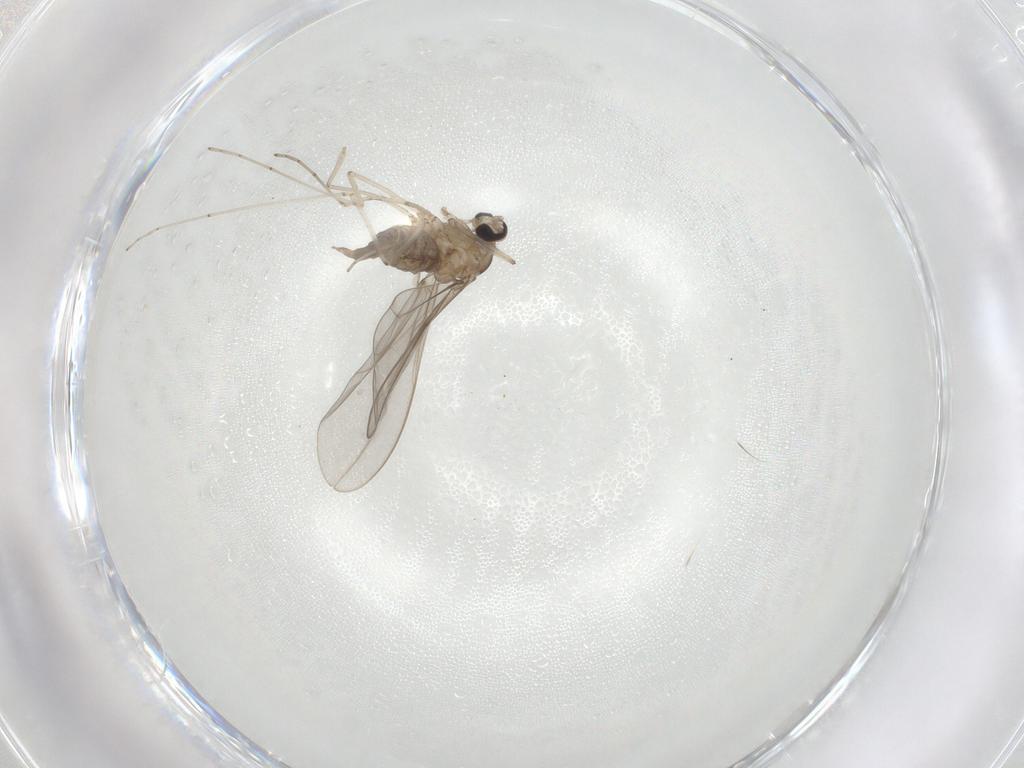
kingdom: Animalia
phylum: Arthropoda
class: Insecta
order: Diptera
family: Cecidomyiidae
